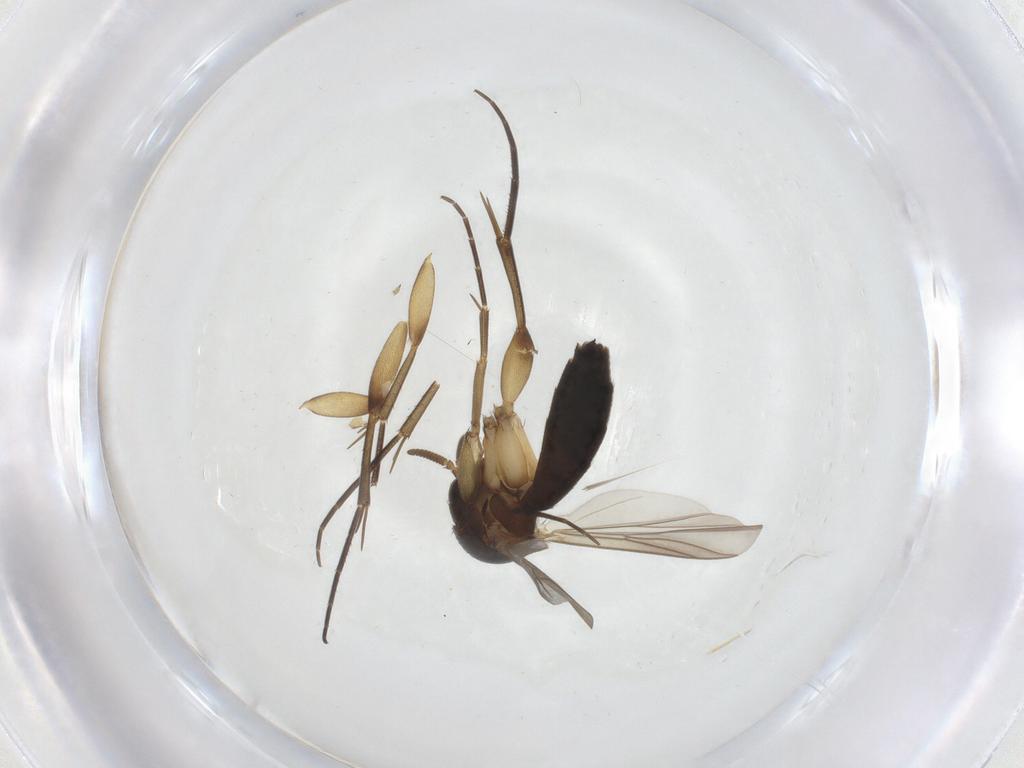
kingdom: Animalia
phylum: Arthropoda
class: Insecta
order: Diptera
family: Mycetophilidae
